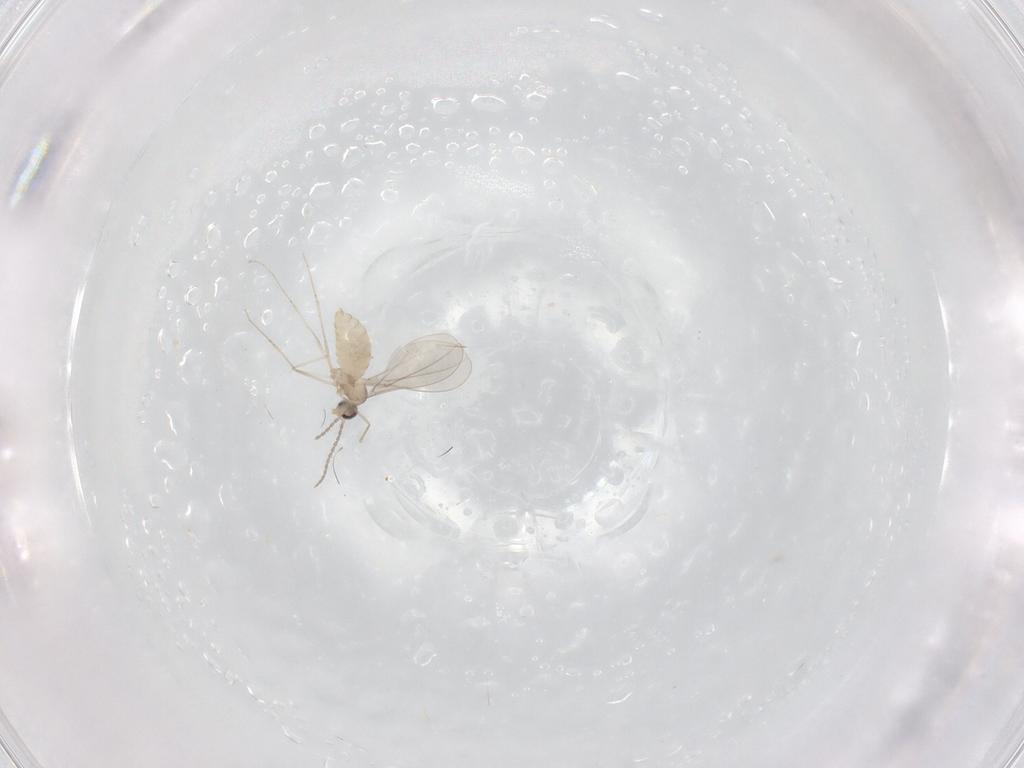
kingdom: Animalia
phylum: Arthropoda
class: Insecta
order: Diptera
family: Cecidomyiidae
